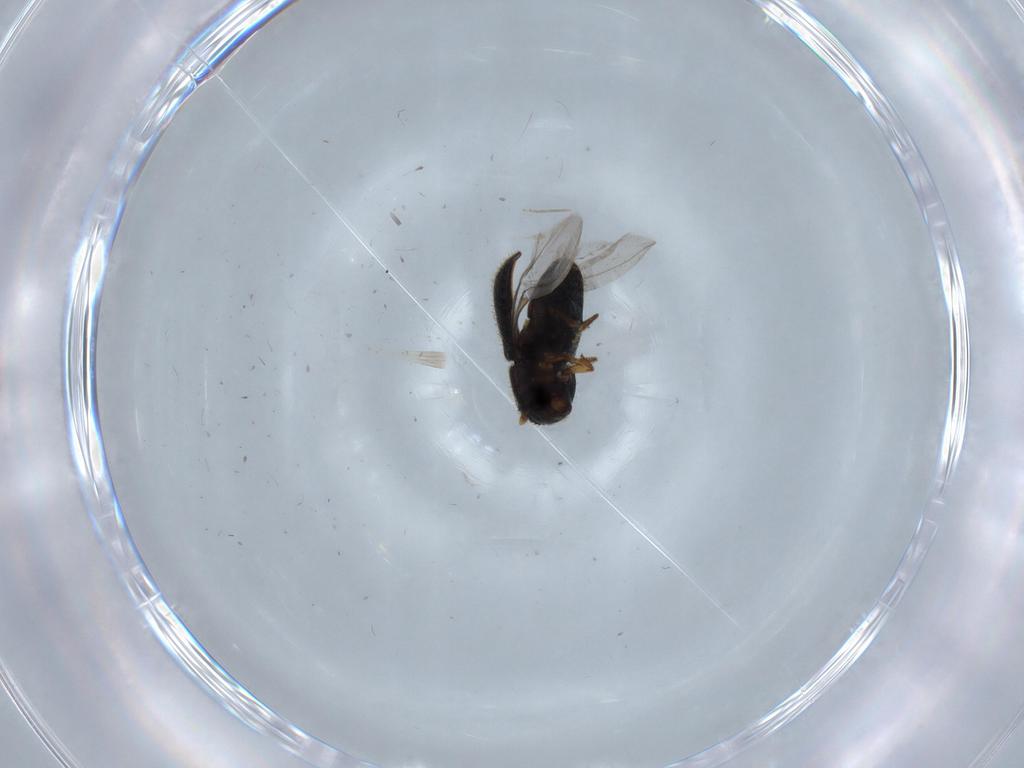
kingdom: Animalia
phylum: Arthropoda
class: Insecta
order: Coleoptera
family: Curculionidae
